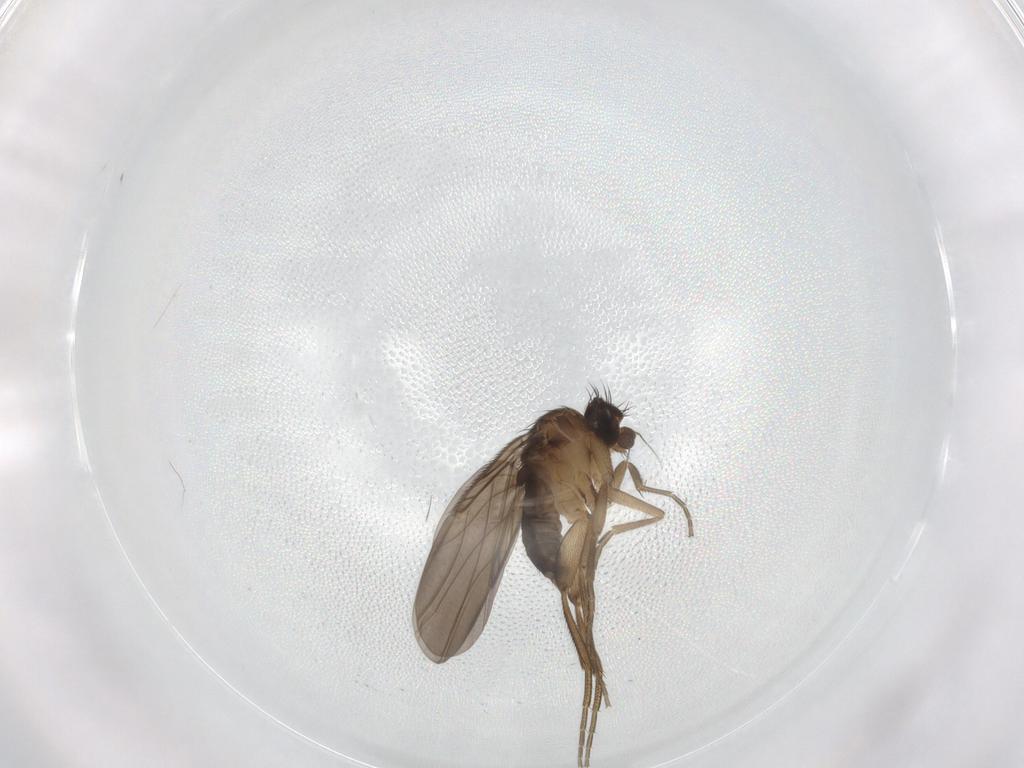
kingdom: Animalia
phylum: Arthropoda
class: Insecta
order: Diptera
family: Phoridae
